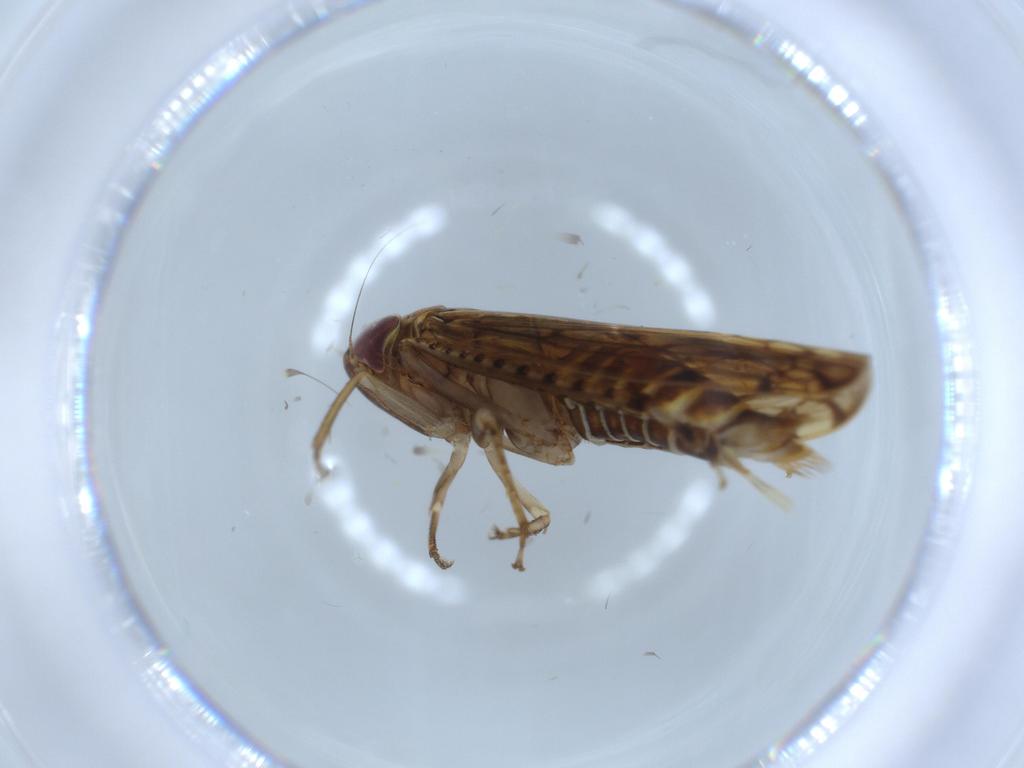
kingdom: Animalia
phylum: Arthropoda
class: Insecta
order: Hemiptera
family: Cicadellidae
